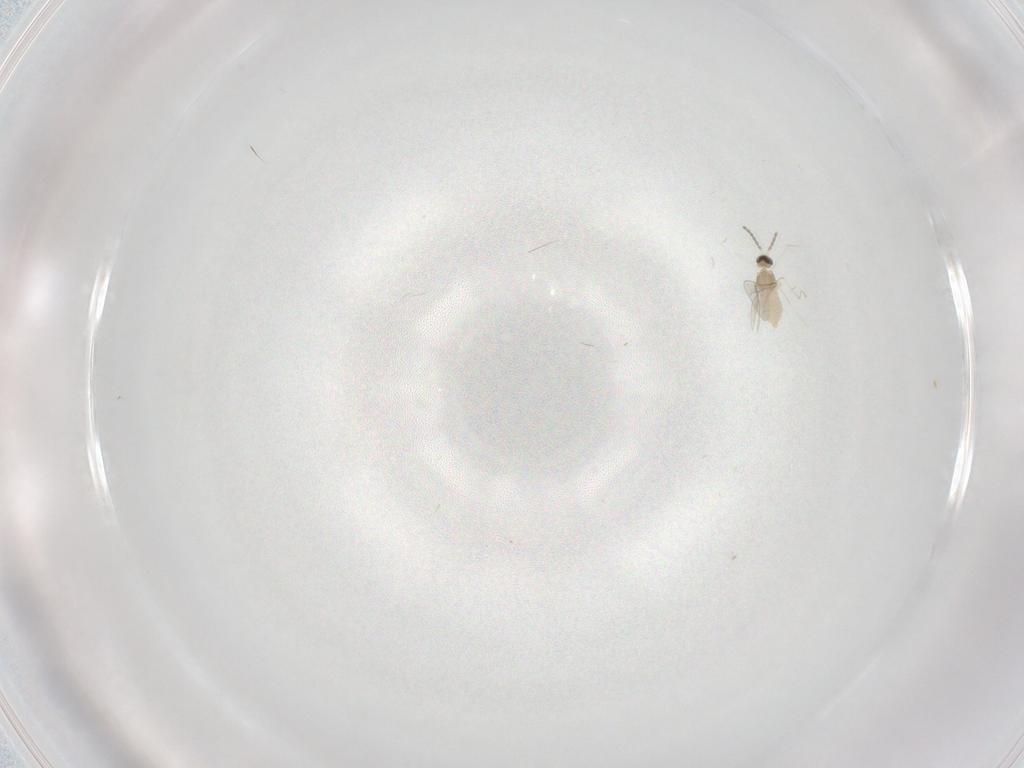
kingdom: Animalia
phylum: Arthropoda
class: Insecta
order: Diptera
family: Cecidomyiidae
